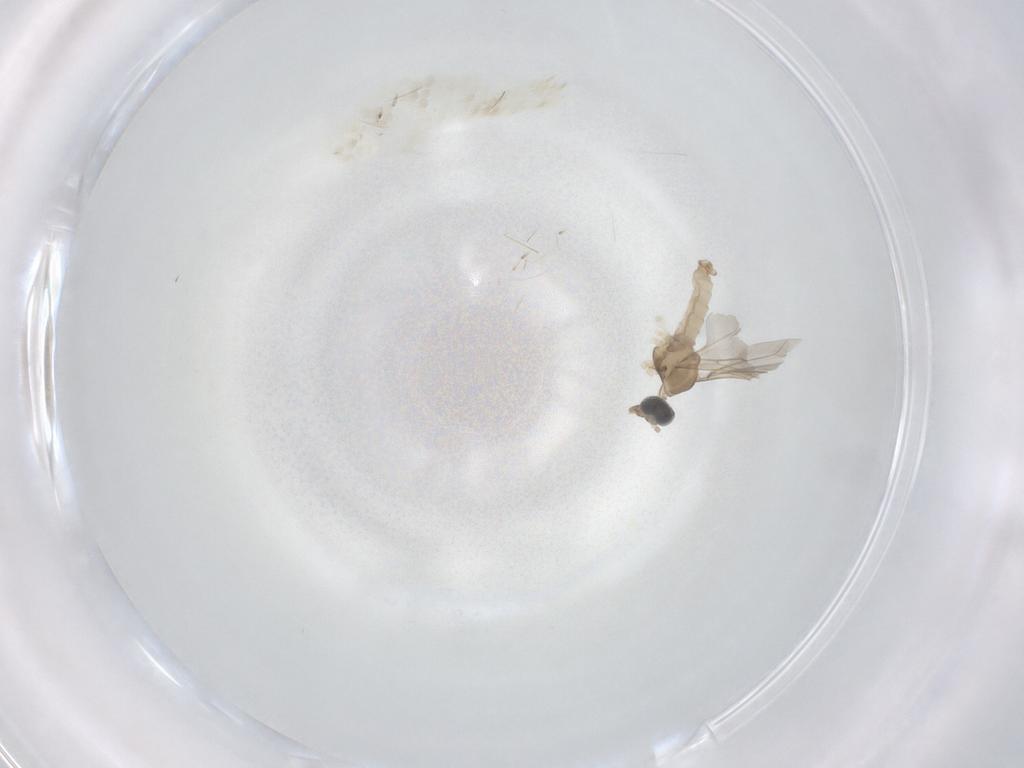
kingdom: Animalia
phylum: Arthropoda
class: Insecta
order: Diptera
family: Cecidomyiidae
